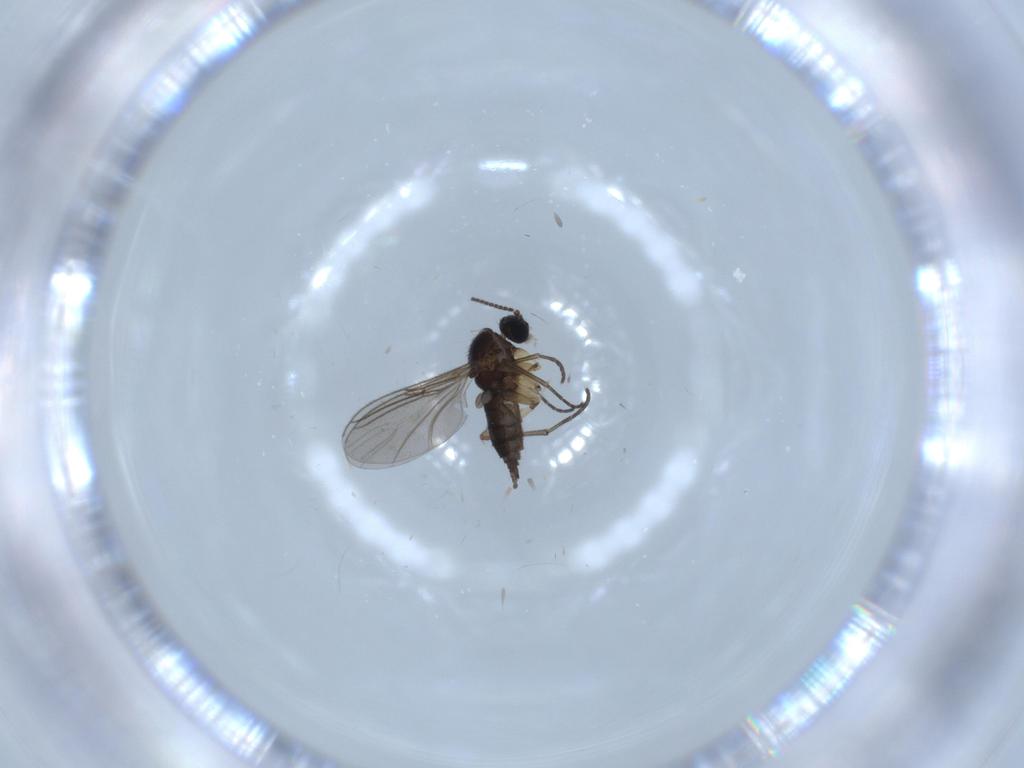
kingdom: Animalia
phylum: Arthropoda
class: Insecta
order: Diptera
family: Sciaridae
